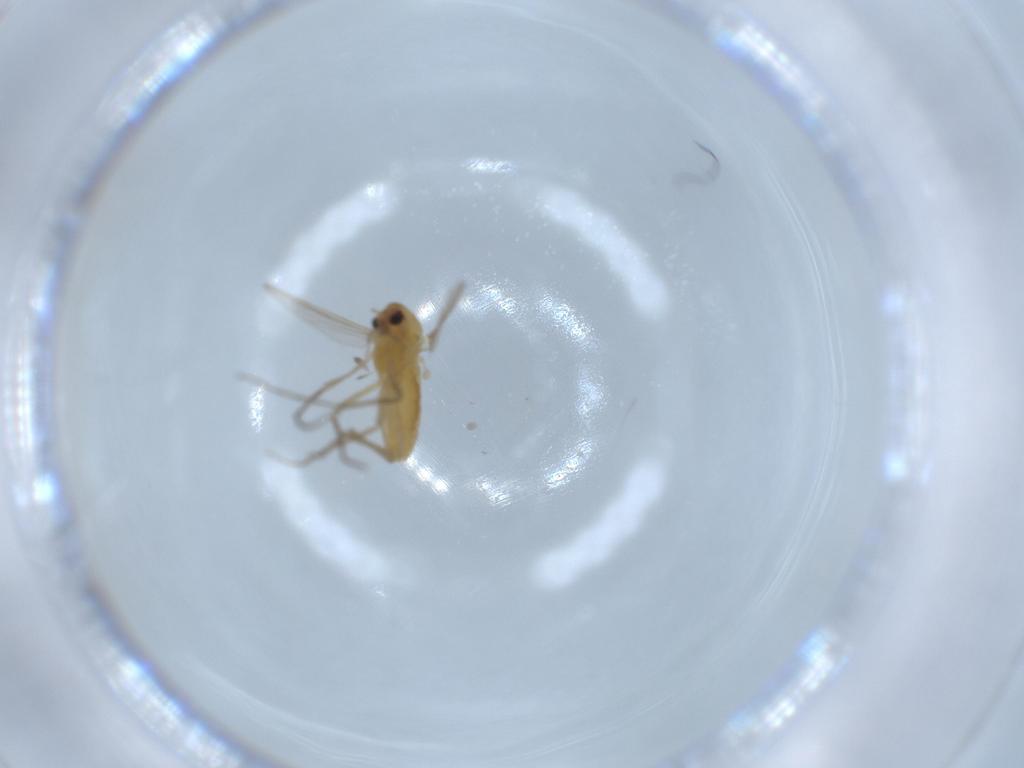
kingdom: Animalia
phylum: Arthropoda
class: Insecta
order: Diptera
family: Chironomidae
